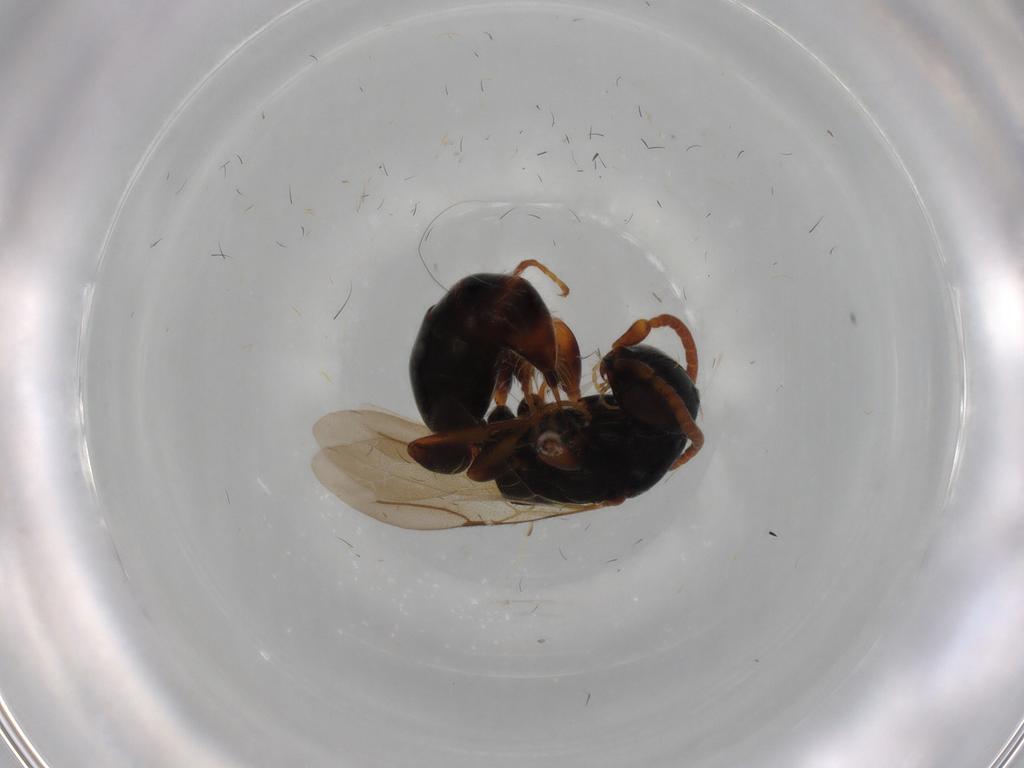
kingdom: Animalia
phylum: Arthropoda
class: Insecta
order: Hymenoptera
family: Bethylidae
